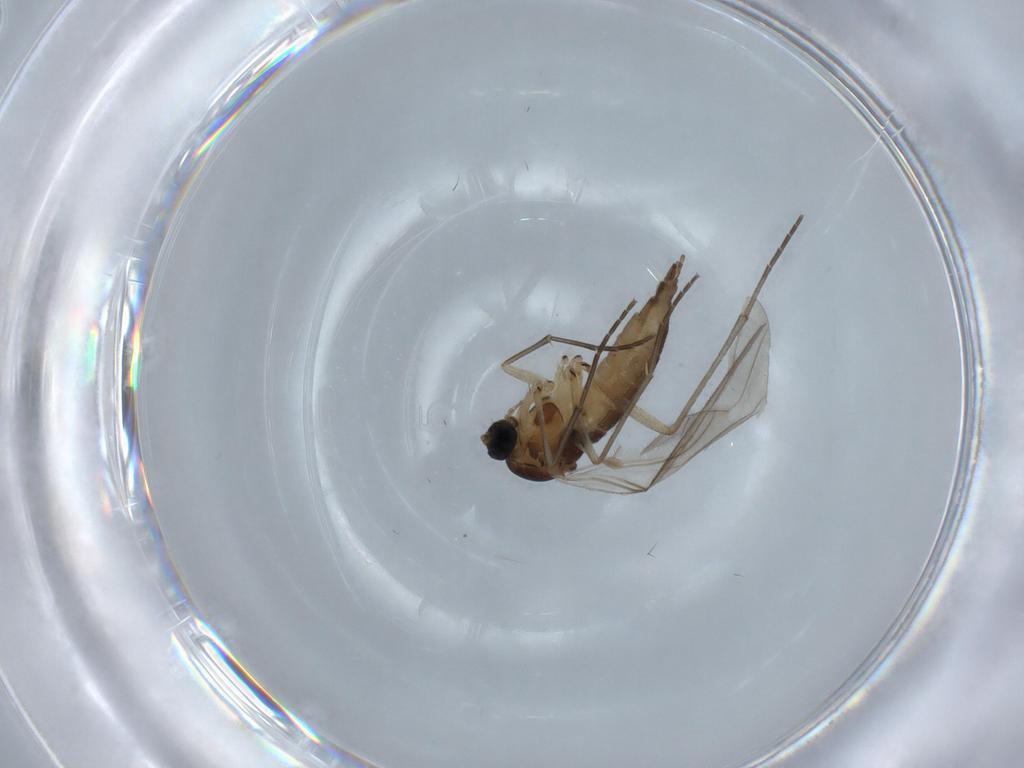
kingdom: Animalia
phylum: Arthropoda
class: Insecta
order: Diptera
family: Sciaridae
